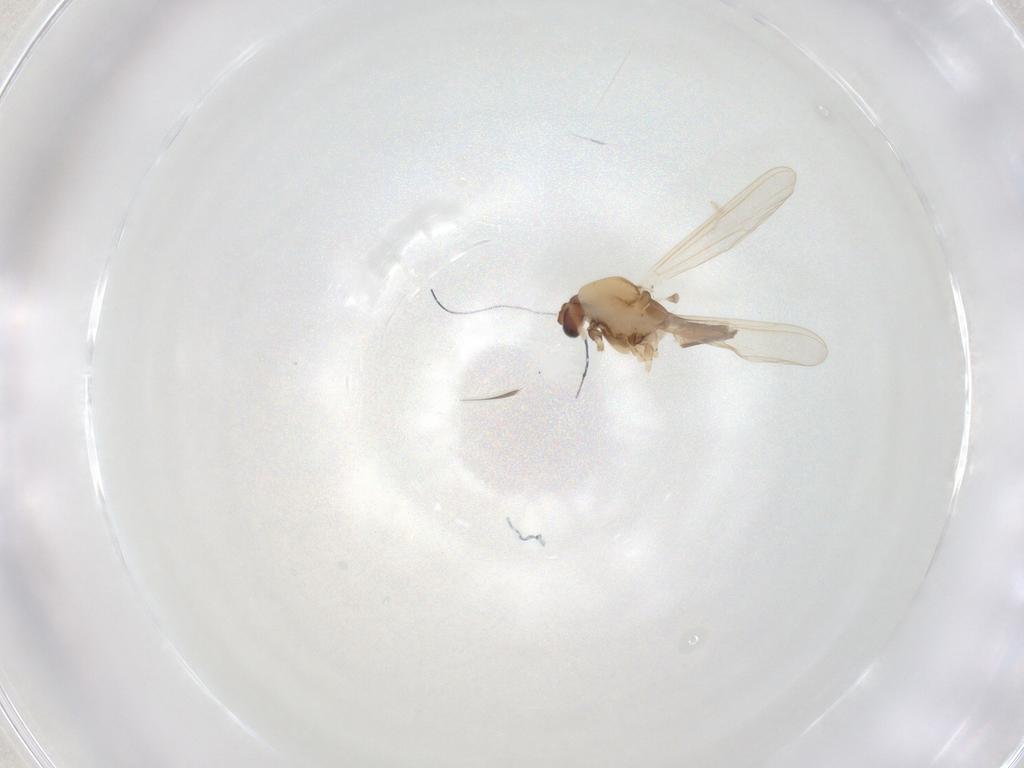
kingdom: Animalia
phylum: Arthropoda
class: Insecta
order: Diptera
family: Chironomidae
